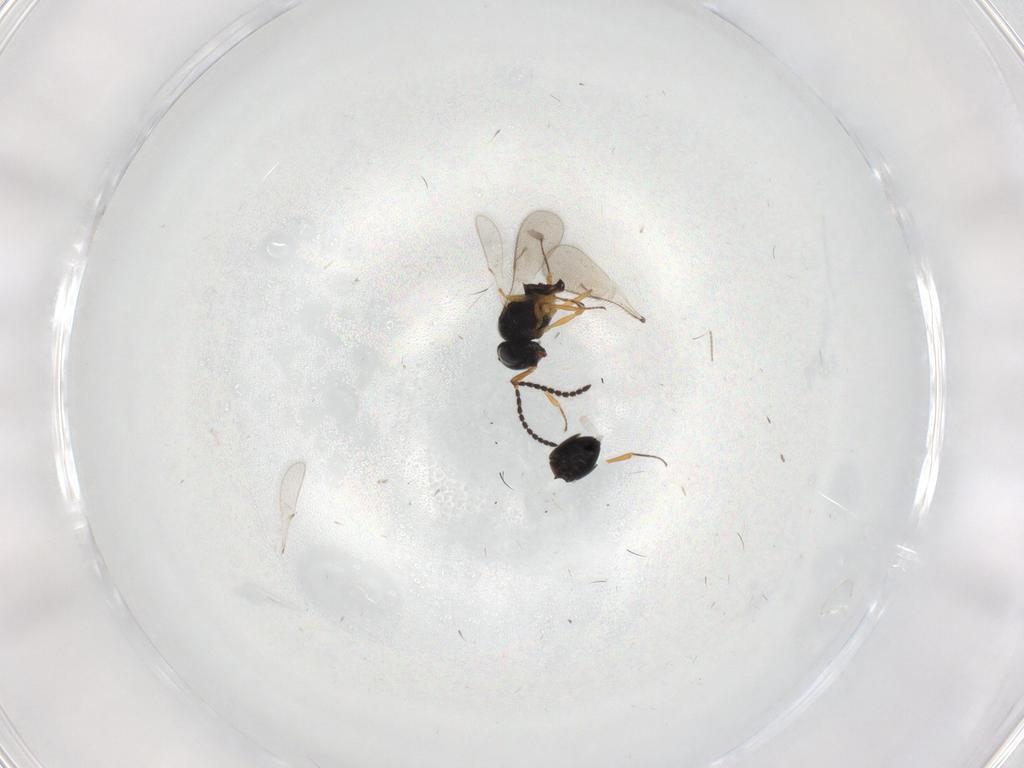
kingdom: Animalia
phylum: Arthropoda
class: Insecta
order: Hymenoptera
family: Scelionidae
